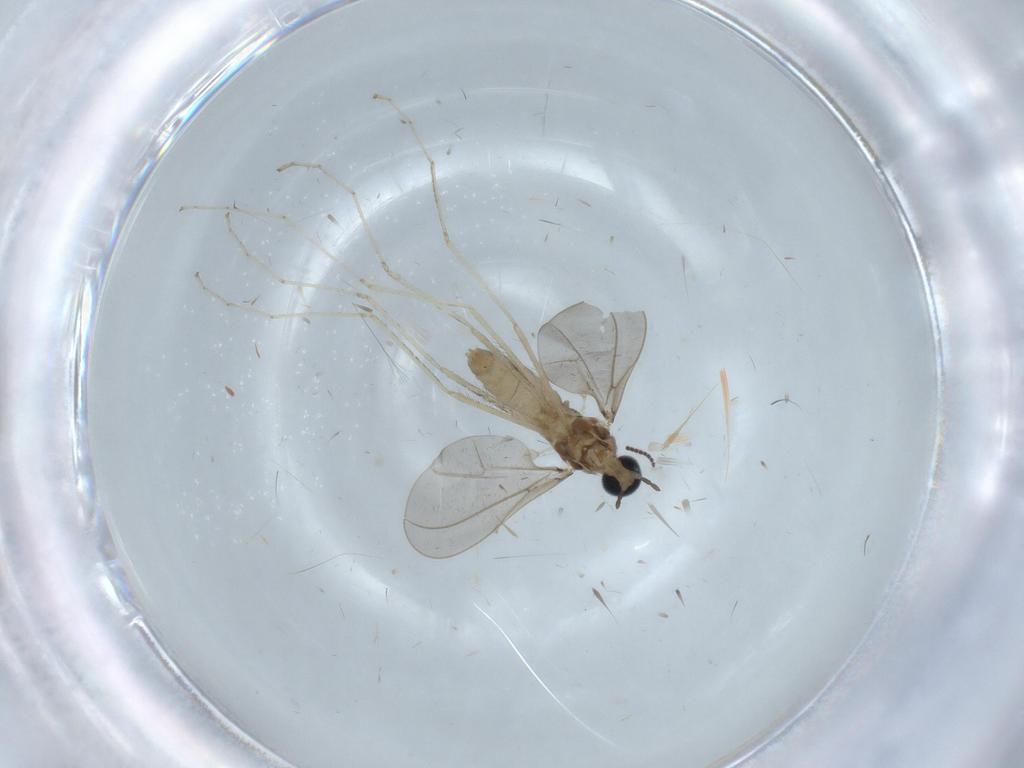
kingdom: Animalia
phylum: Arthropoda
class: Insecta
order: Diptera
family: Cecidomyiidae
